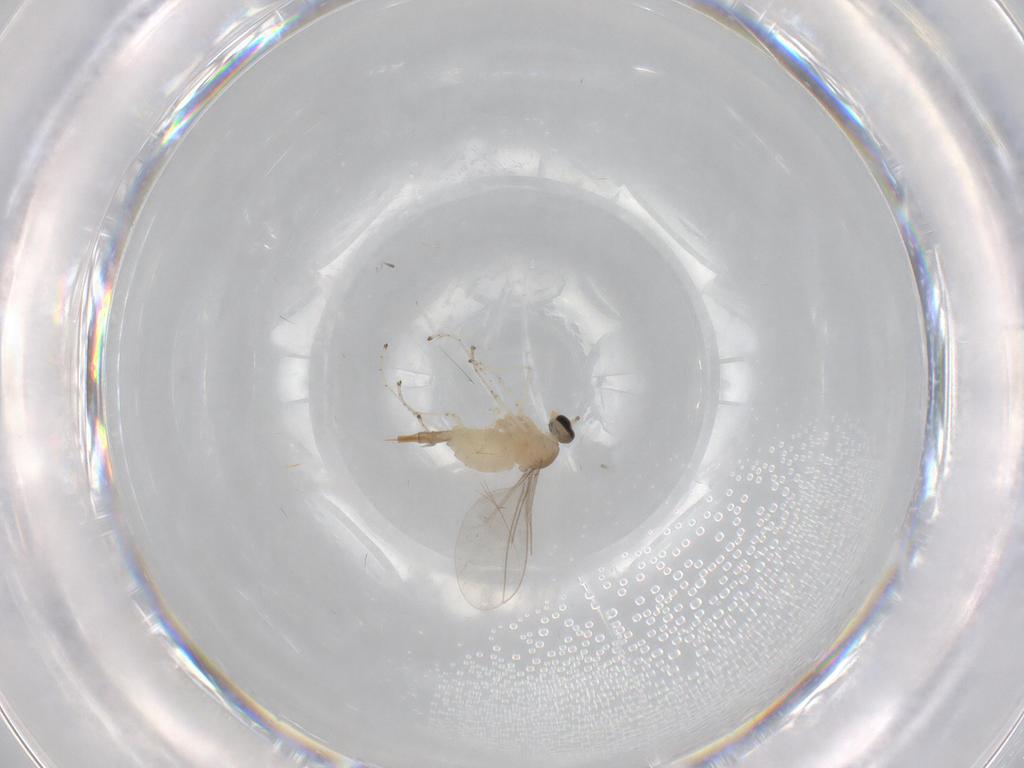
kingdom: Animalia
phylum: Arthropoda
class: Insecta
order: Diptera
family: Cecidomyiidae
